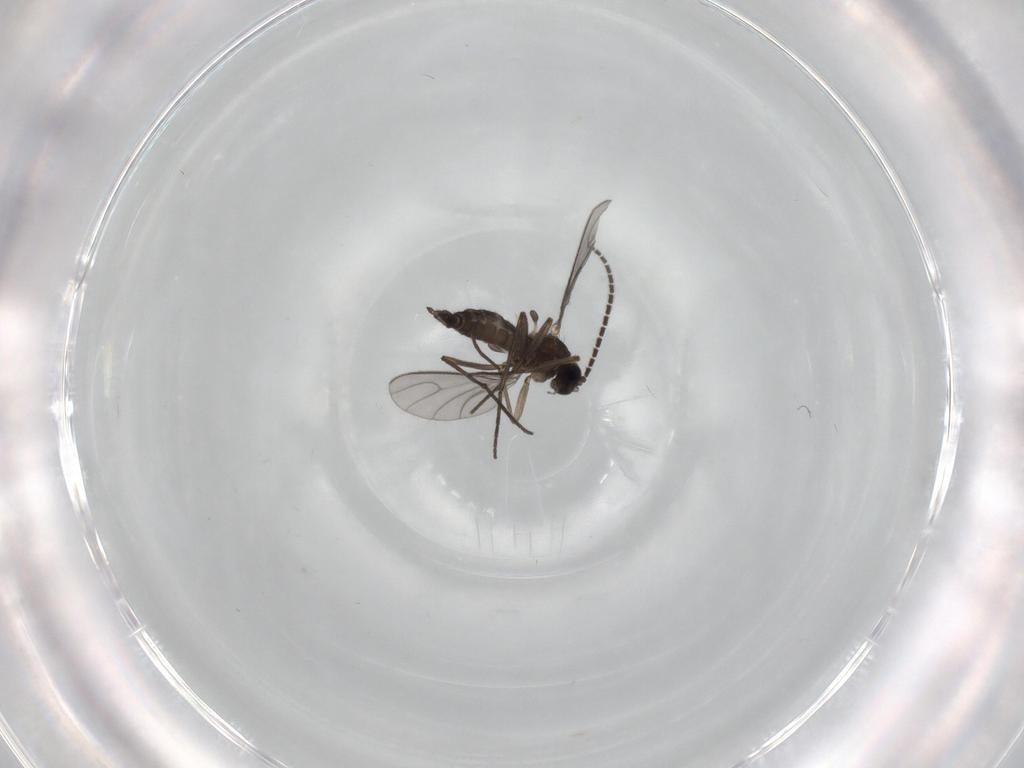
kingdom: Animalia
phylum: Arthropoda
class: Insecta
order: Diptera
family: Sciaridae
